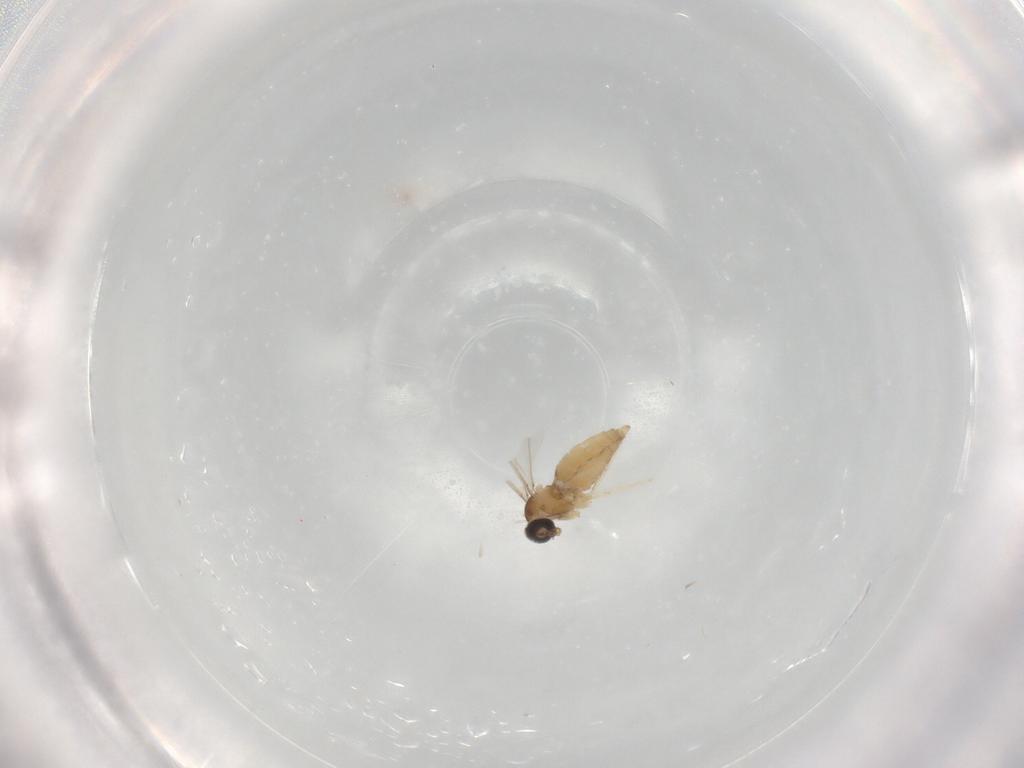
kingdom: Animalia
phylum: Arthropoda
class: Insecta
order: Diptera
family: Cecidomyiidae
